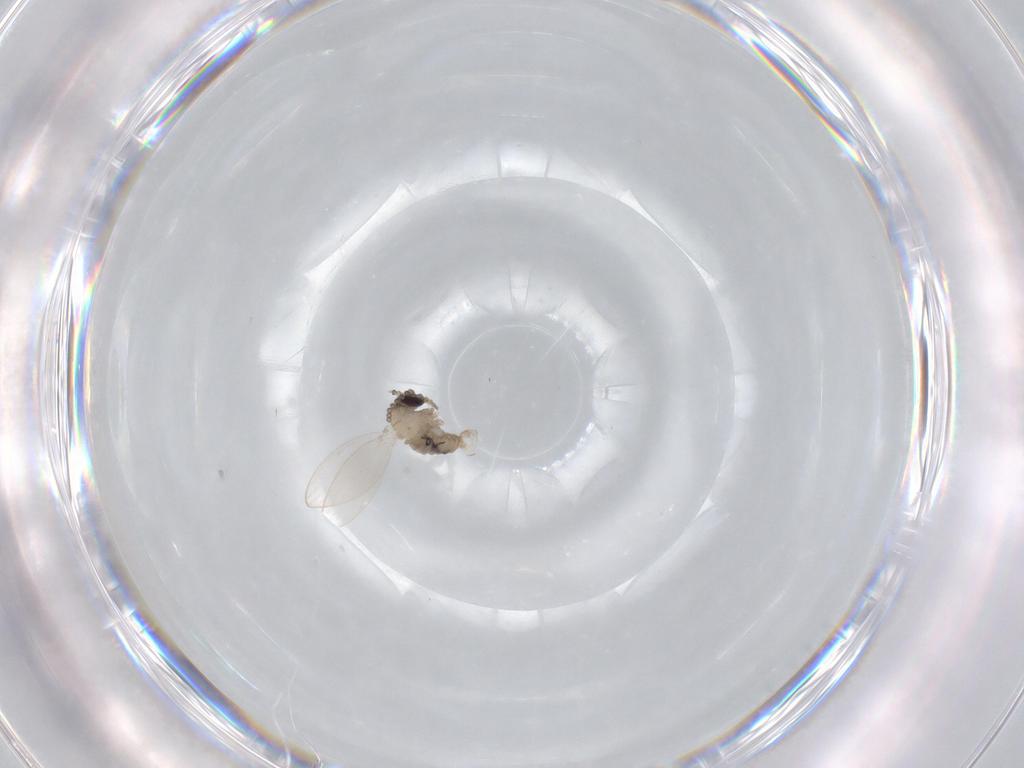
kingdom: Animalia
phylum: Arthropoda
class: Insecta
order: Diptera
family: Psychodidae
